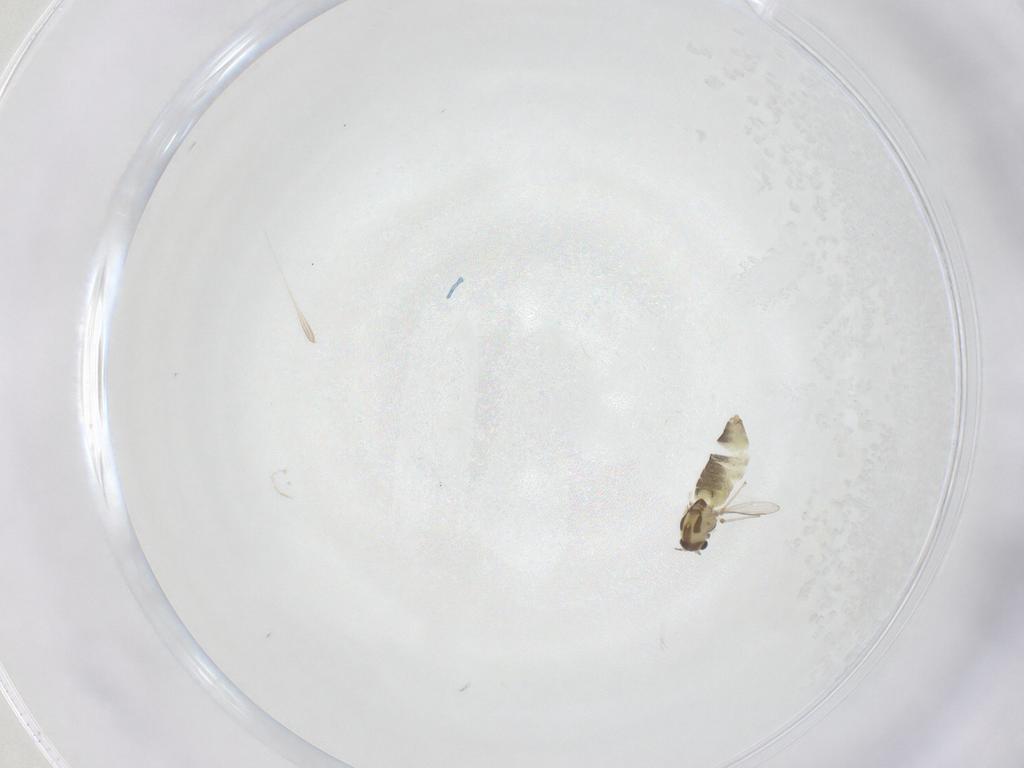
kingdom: Animalia
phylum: Arthropoda
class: Insecta
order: Diptera
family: Chironomidae
